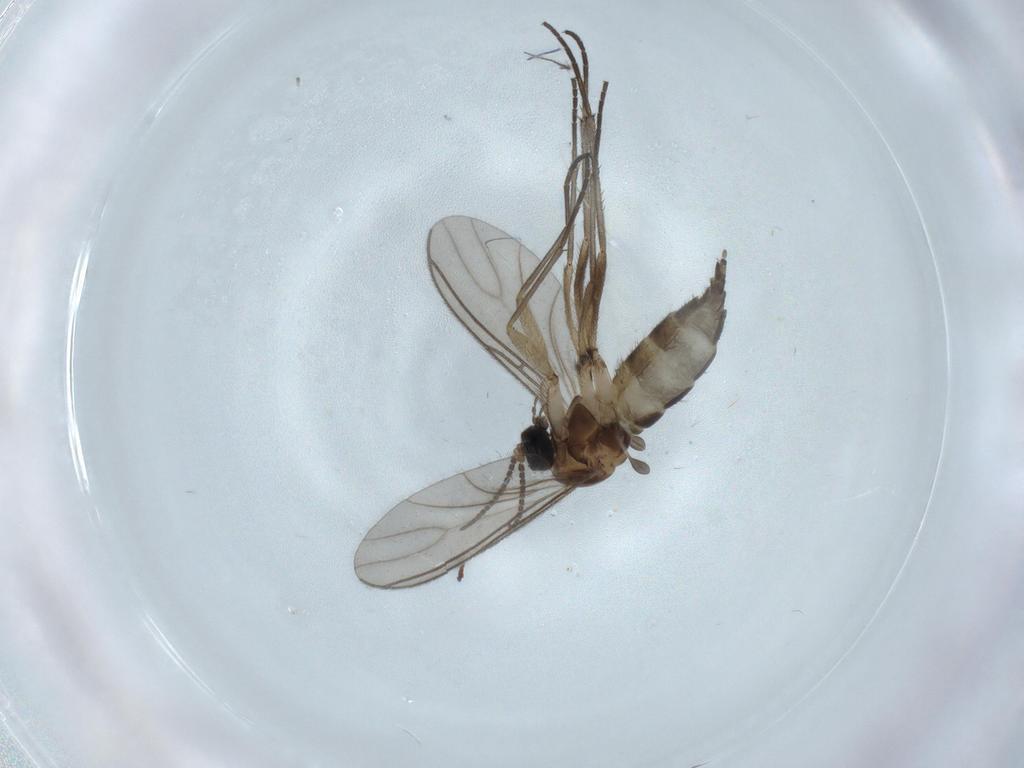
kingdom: Animalia
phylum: Arthropoda
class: Insecta
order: Diptera
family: Sciaridae
